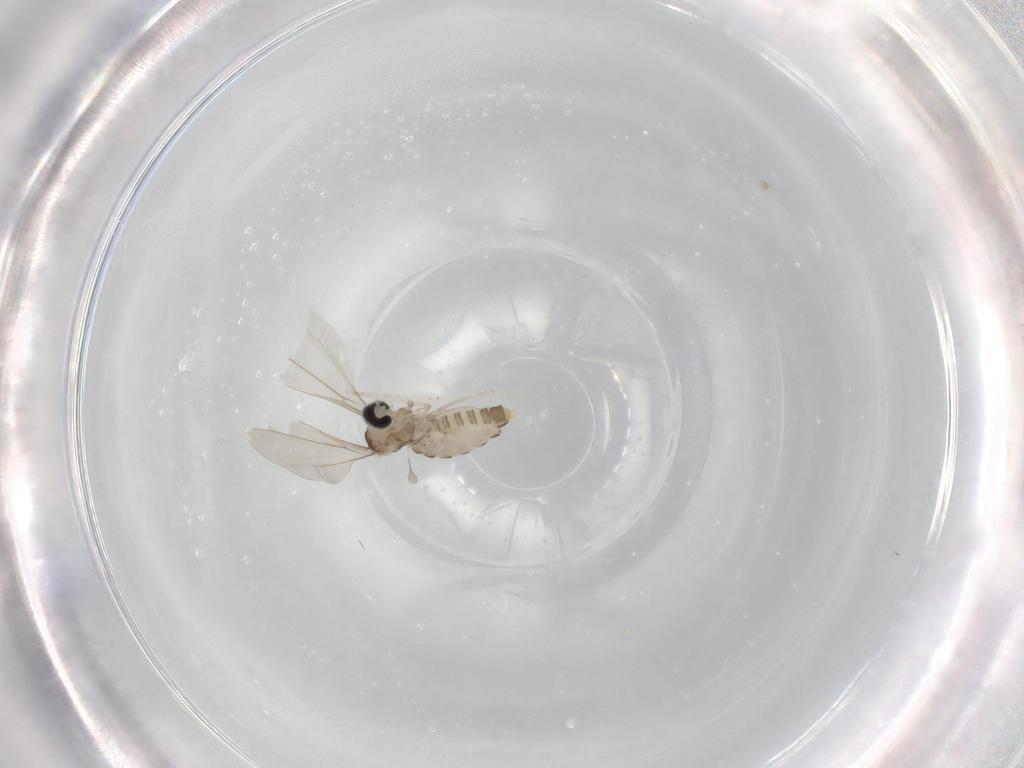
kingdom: Animalia
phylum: Arthropoda
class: Insecta
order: Diptera
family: Cecidomyiidae
